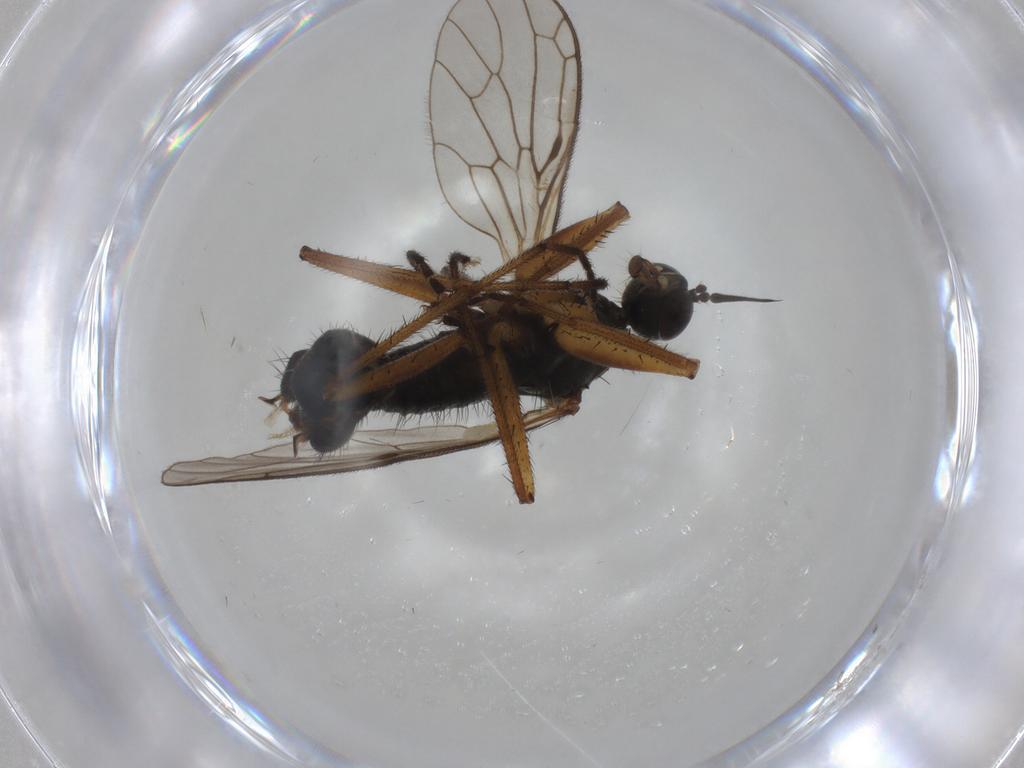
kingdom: Animalia
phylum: Arthropoda
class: Insecta
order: Diptera
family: Empididae
